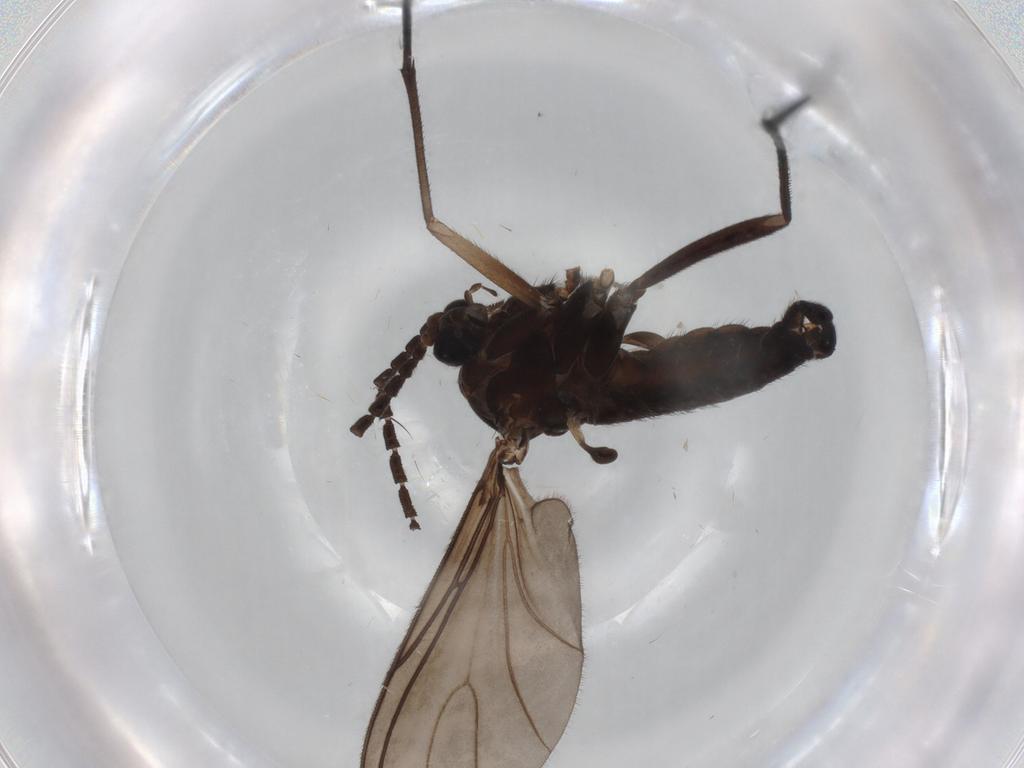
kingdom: Animalia
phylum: Arthropoda
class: Insecta
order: Diptera
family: Sciaridae
